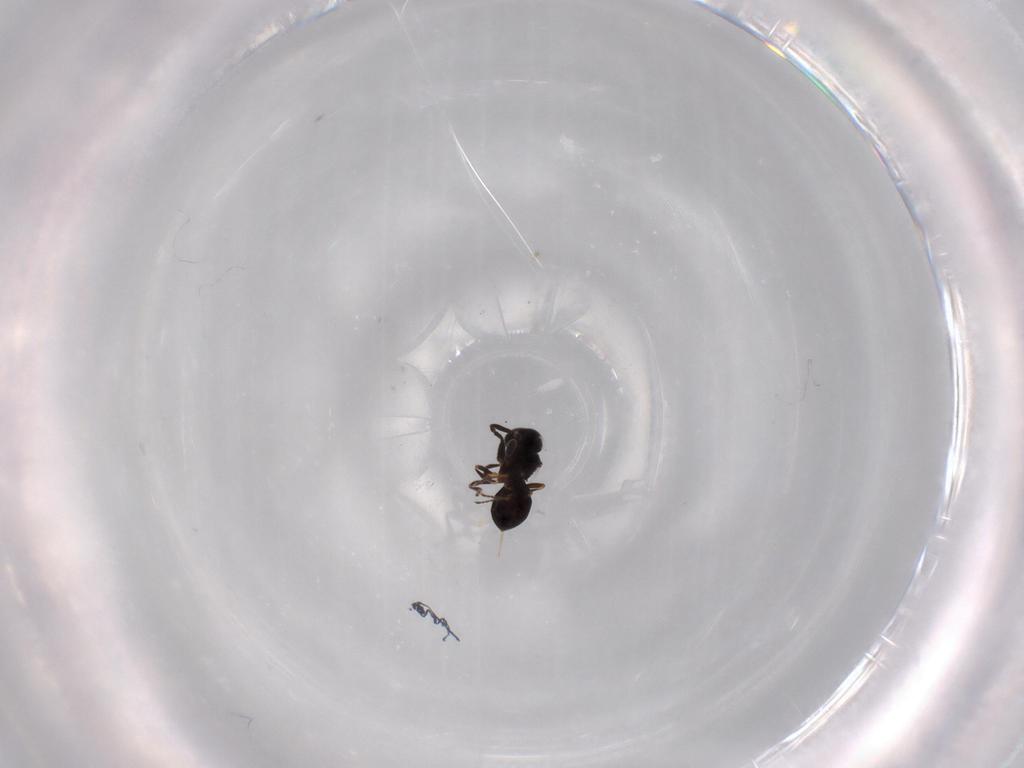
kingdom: Animalia
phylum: Arthropoda
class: Insecta
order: Hymenoptera
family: Scelionidae
